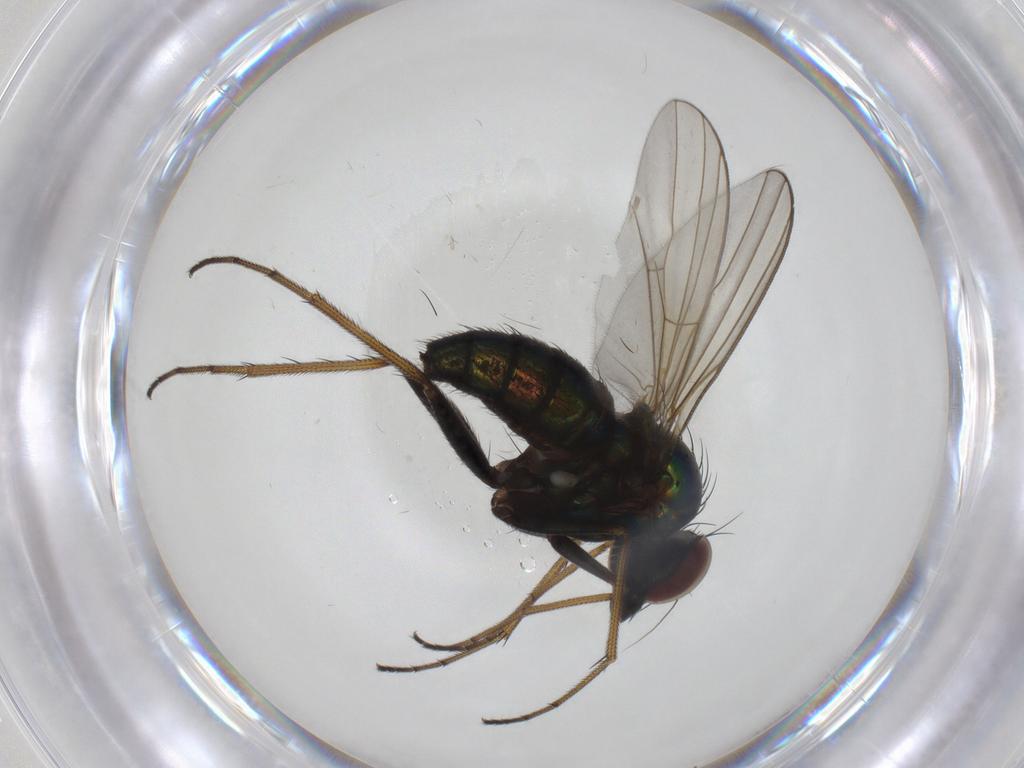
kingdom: Animalia
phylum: Arthropoda
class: Insecta
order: Diptera
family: Dolichopodidae
